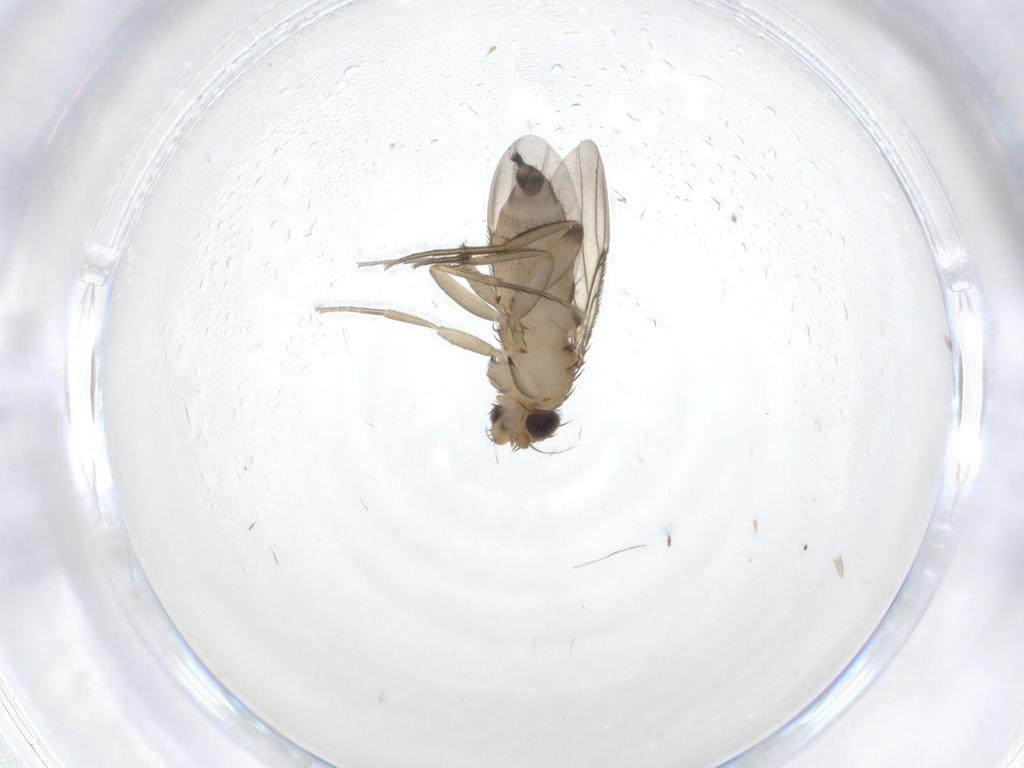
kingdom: Animalia
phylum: Arthropoda
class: Insecta
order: Diptera
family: Phoridae
